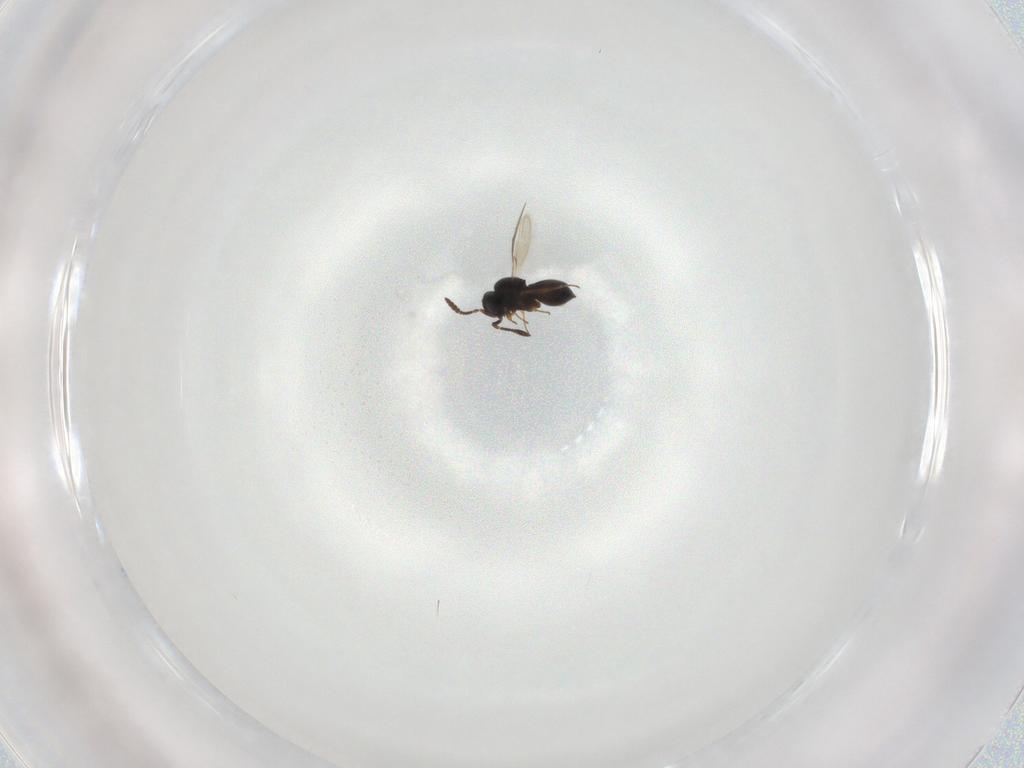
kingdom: Animalia
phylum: Arthropoda
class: Insecta
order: Hymenoptera
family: Scelionidae
